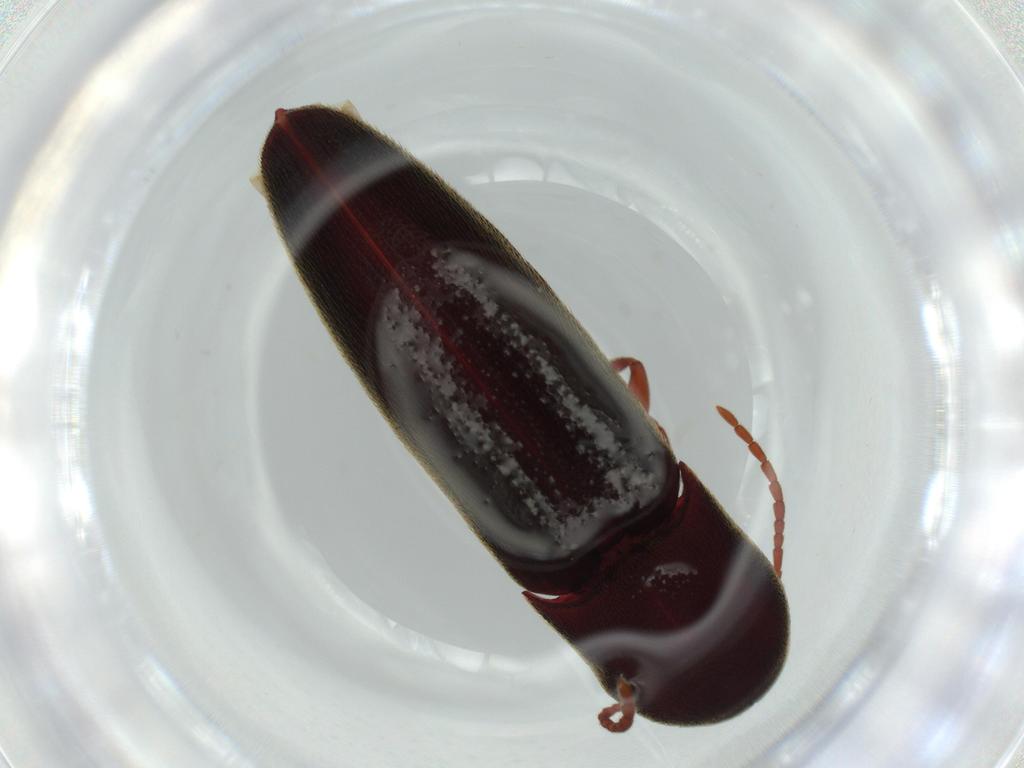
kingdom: Animalia
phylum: Arthropoda
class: Insecta
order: Coleoptera
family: Eucnemidae
